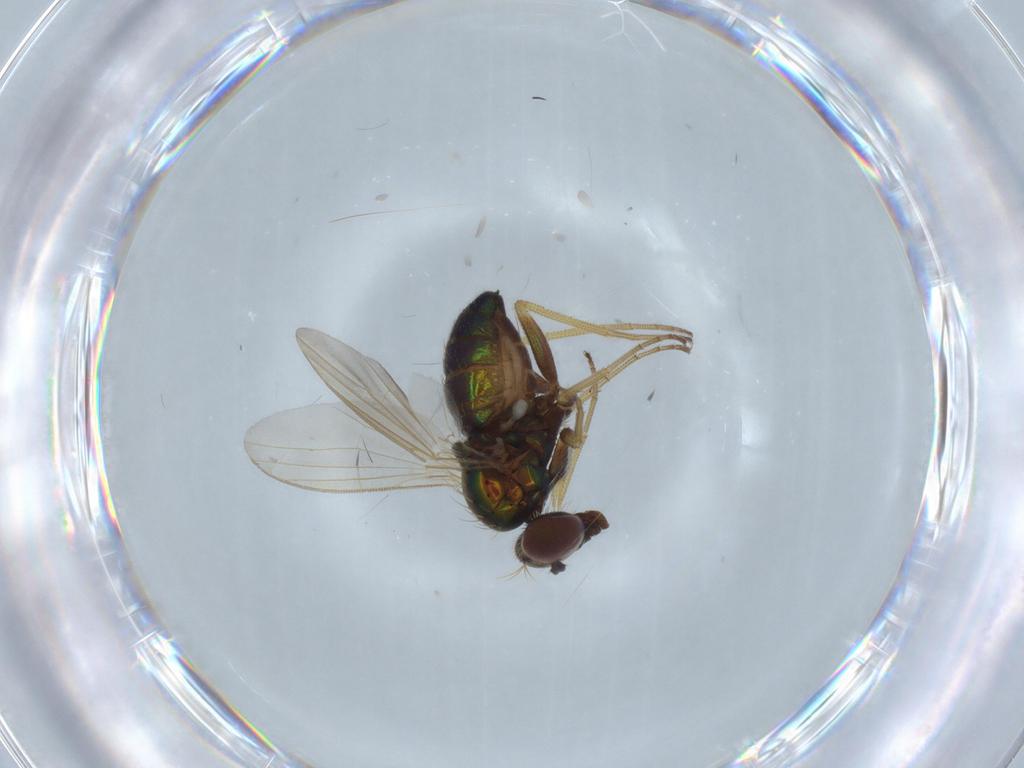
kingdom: Animalia
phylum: Arthropoda
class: Insecta
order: Diptera
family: Dolichopodidae
